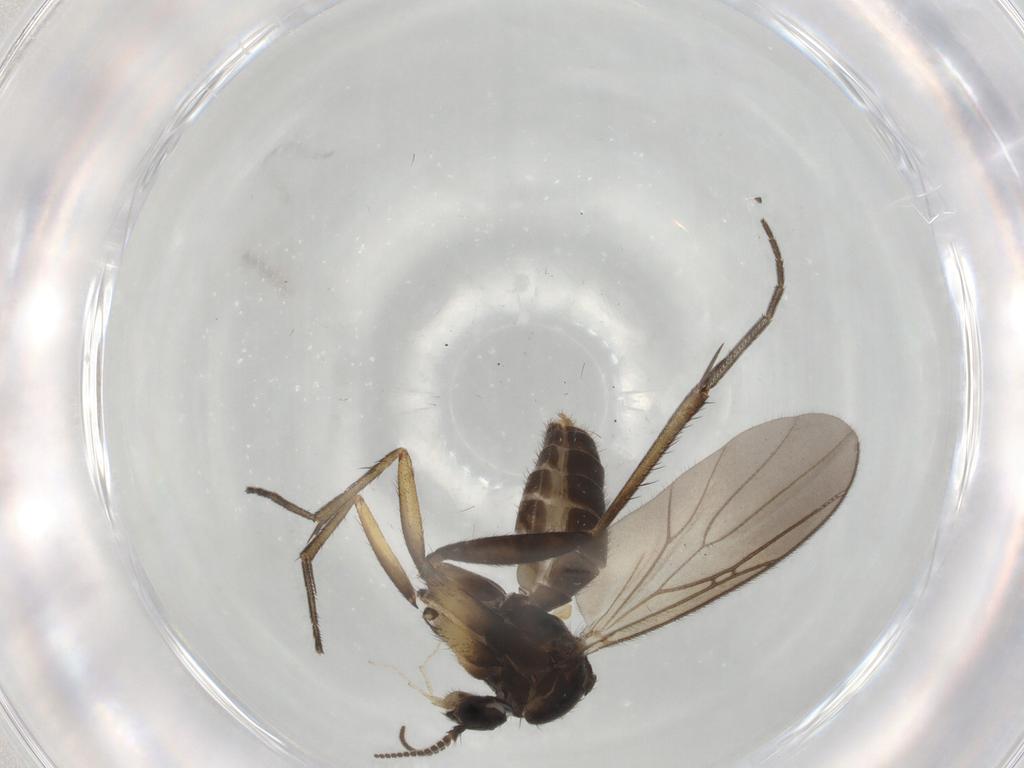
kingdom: Animalia
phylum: Arthropoda
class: Insecta
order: Diptera
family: Mycetophilidae
